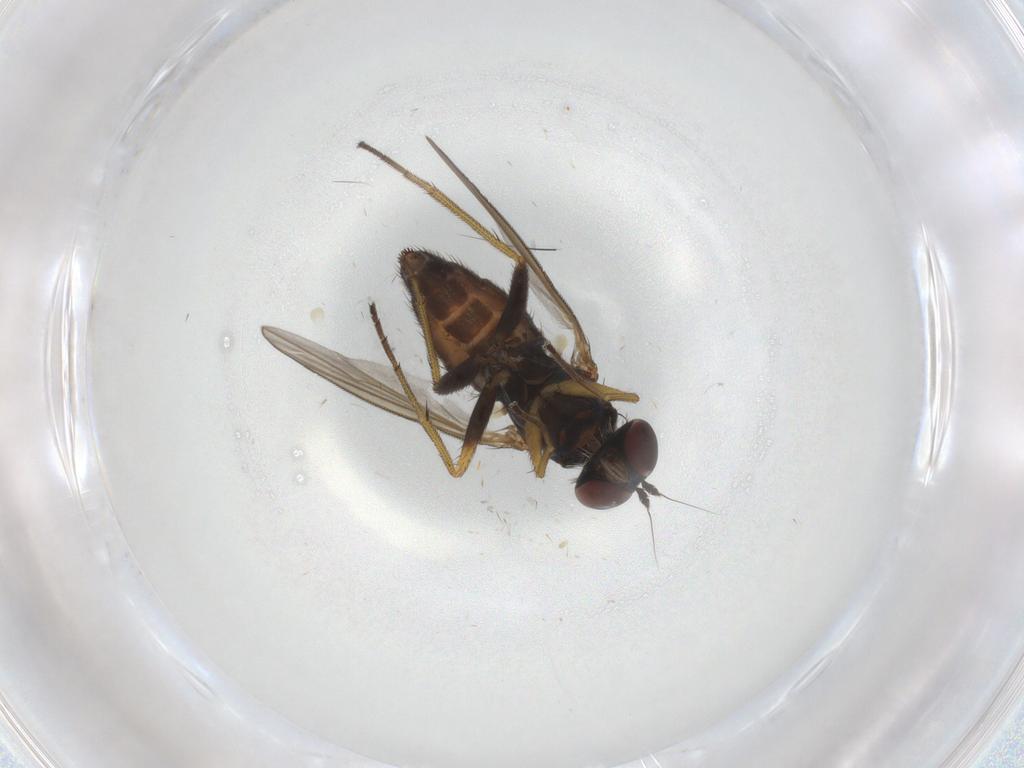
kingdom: Animalia
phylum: Arthropoda
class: Insecta
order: Diptera
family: Dolichopodidae
